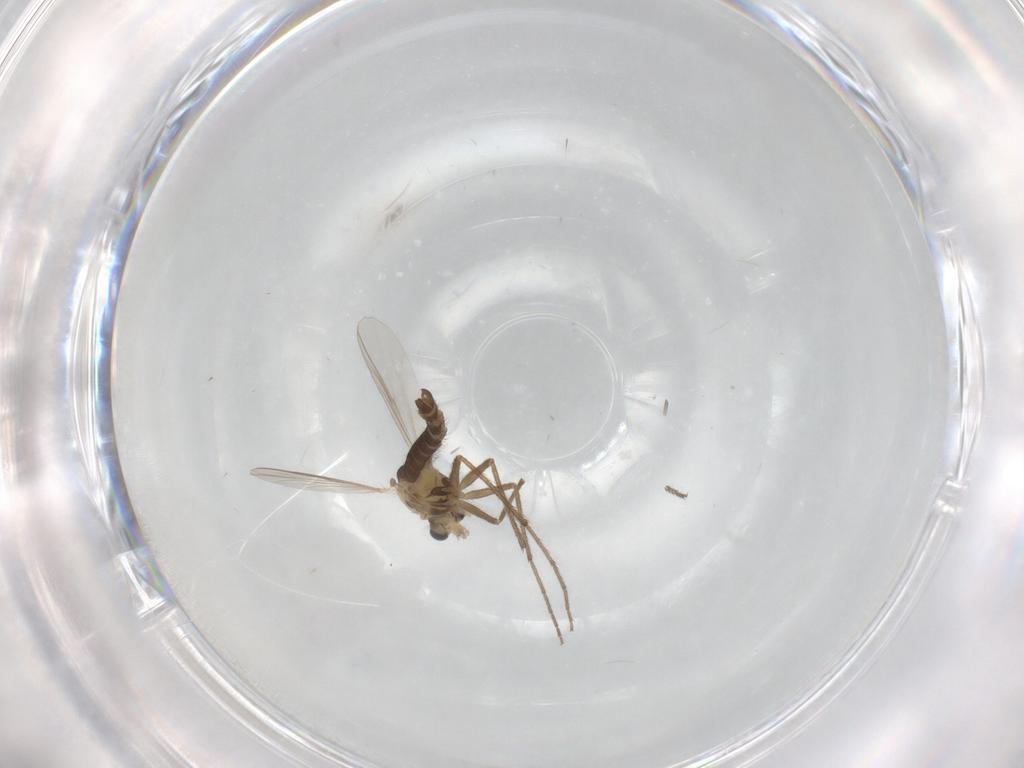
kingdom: Animalia
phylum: Arthropoda
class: Insecta
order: Diptera
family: Chironomidae
